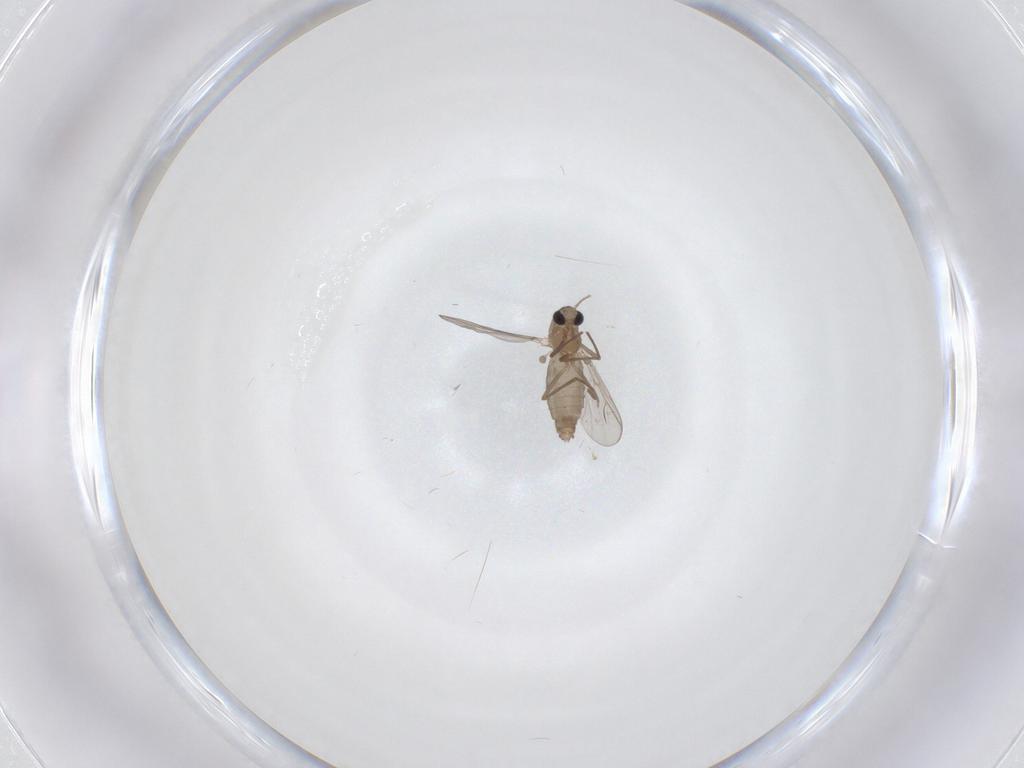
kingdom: Animalia
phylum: Arthropoda
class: Insecta
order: Diptera
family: Chironomidae
